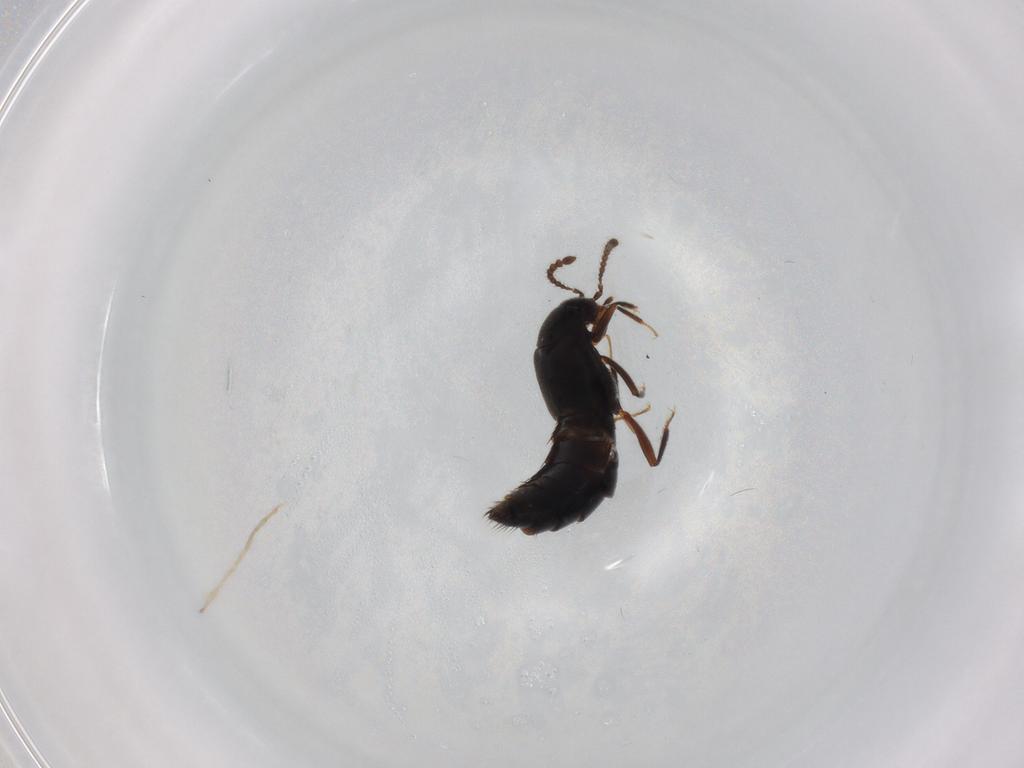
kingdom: Animalia
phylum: Arthropoda
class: Insecta
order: Coleoptera
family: Staphylinidae
